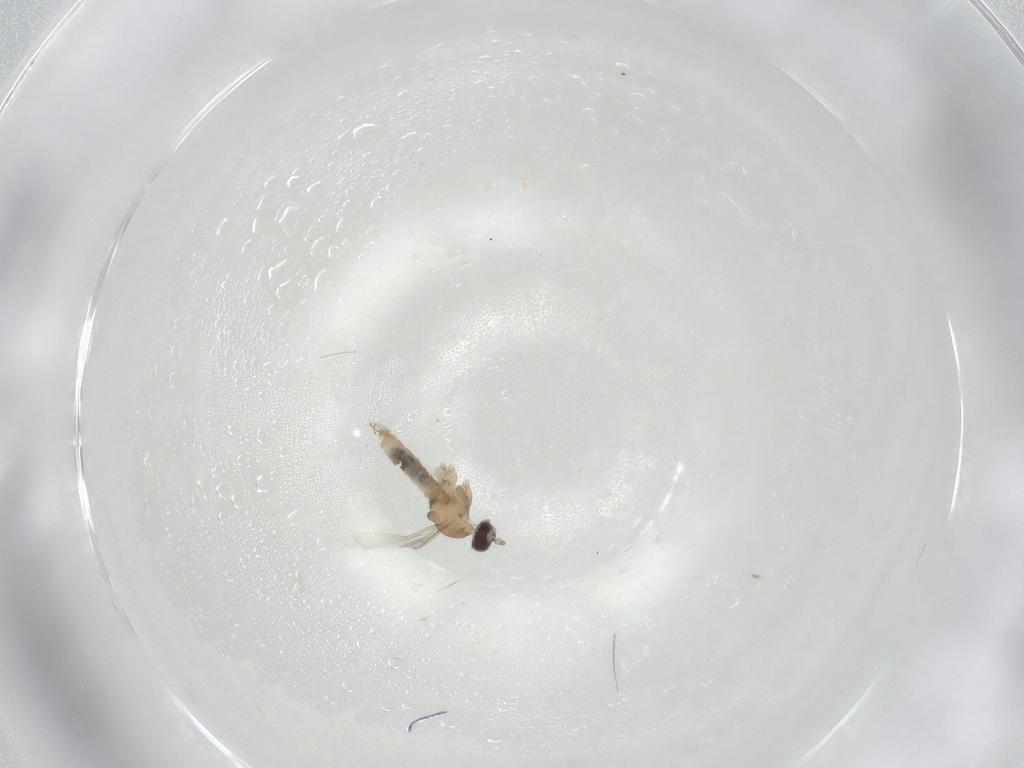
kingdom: Animalia
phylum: Arthropoda
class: Insecta
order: Diptera
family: Cecidomyiidae
